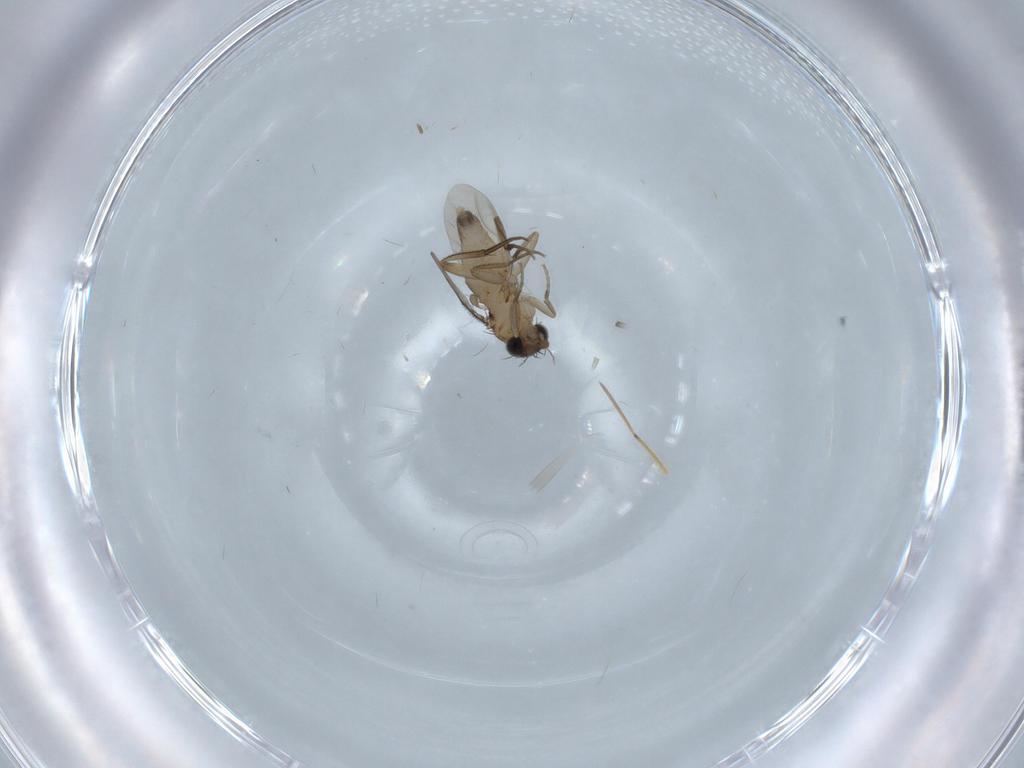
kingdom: Animalia
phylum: Arthropoda
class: Insecta
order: Diptera
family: Phoridae
